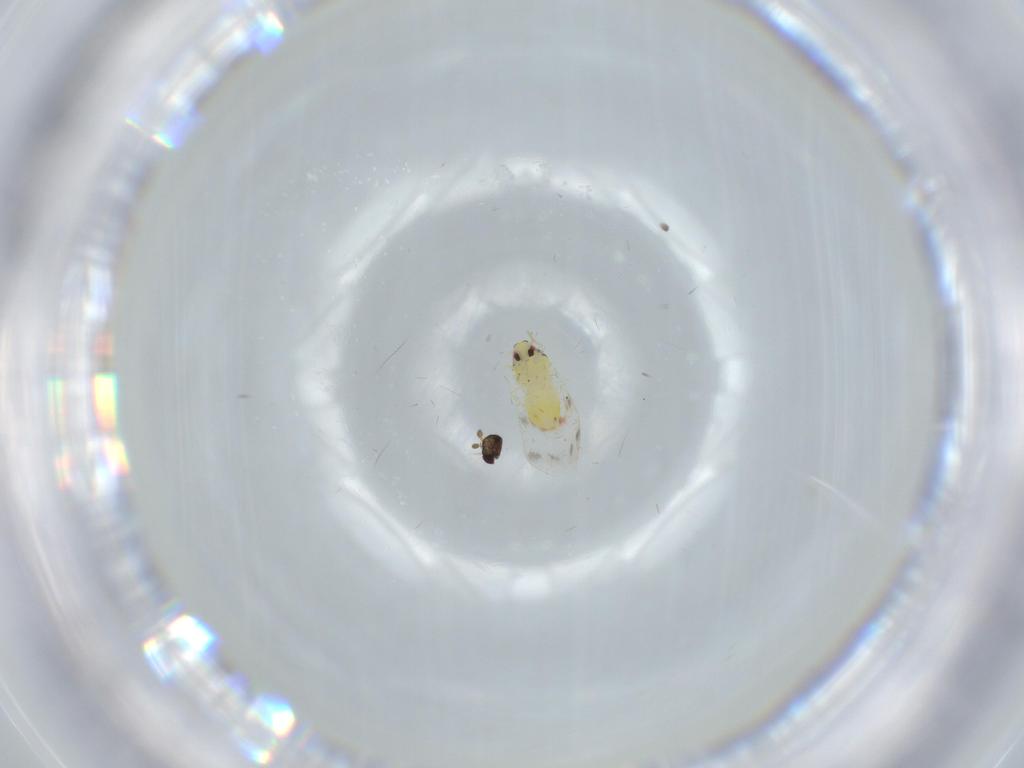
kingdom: Animalia
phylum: Arthropoda
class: Insecta
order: Hemiptera
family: Aleyrodidae
